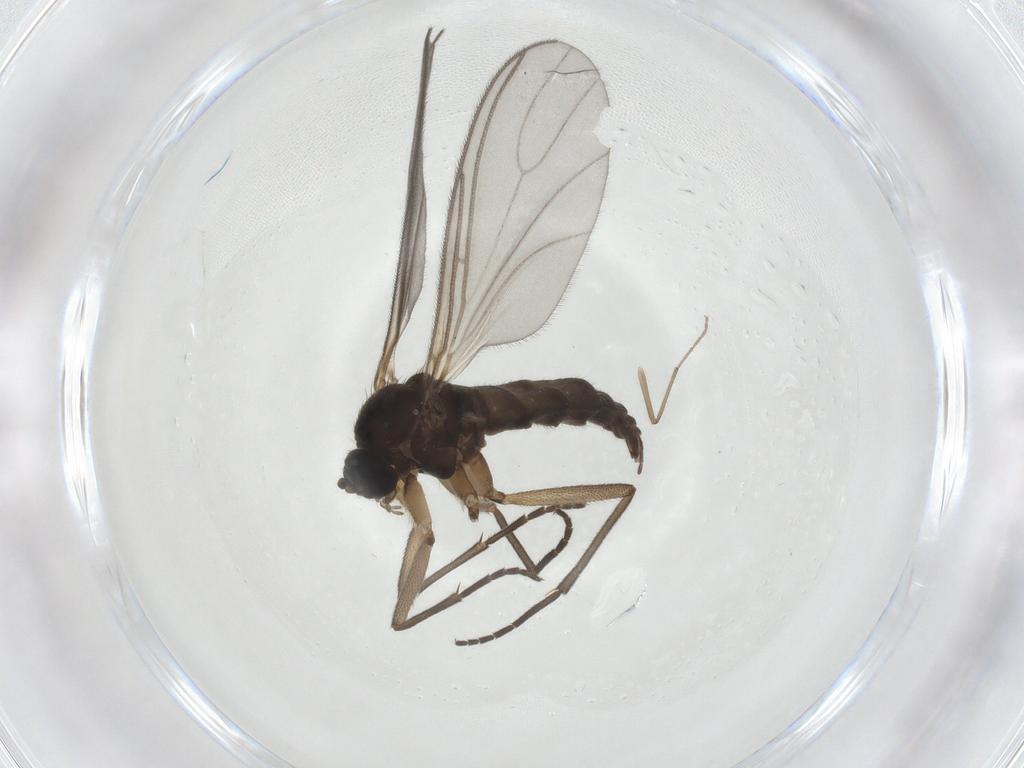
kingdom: Animalia
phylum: Arthropoda
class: Insecta
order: Diptera
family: Sciaridae
